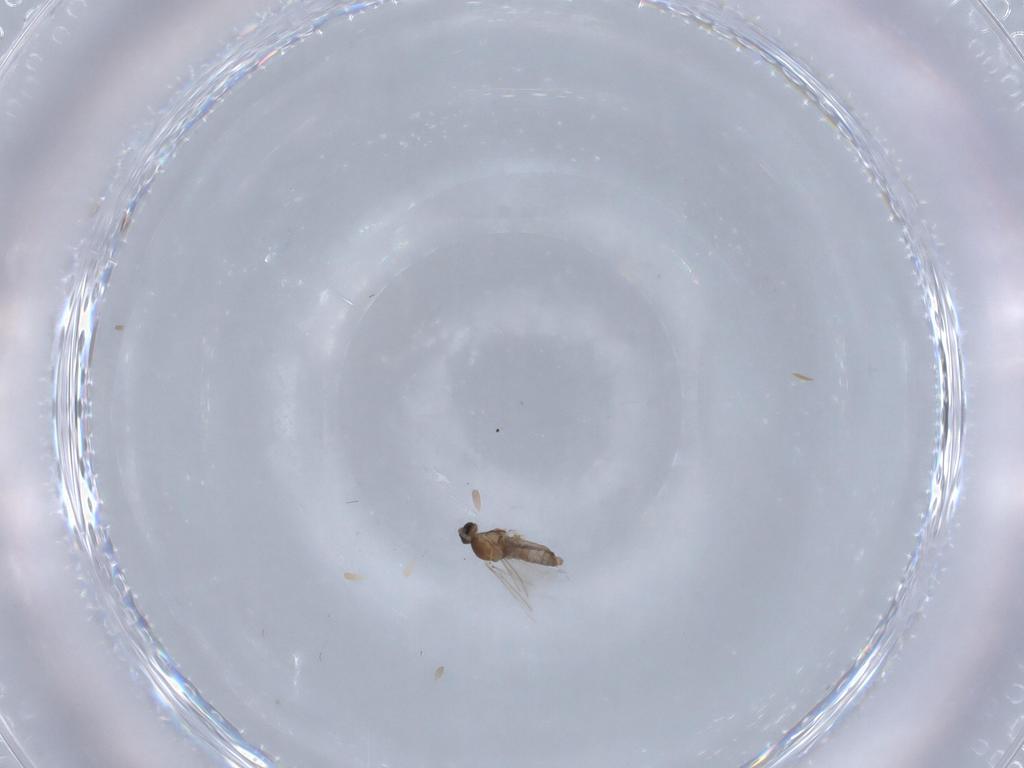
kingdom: Animalia
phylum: Arthropoda
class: Insecta
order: Diptera
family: Cecidomyiidae
